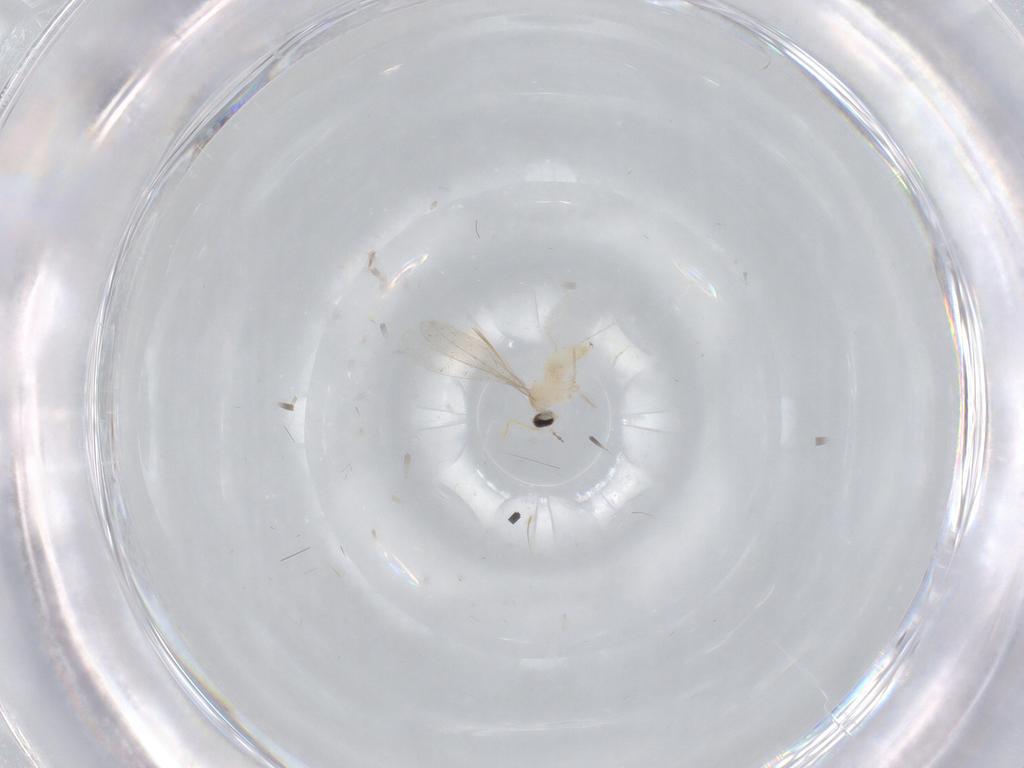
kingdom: Animalia
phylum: Arthropoda
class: Insecta
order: Diptera
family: Cecidomyiidae
